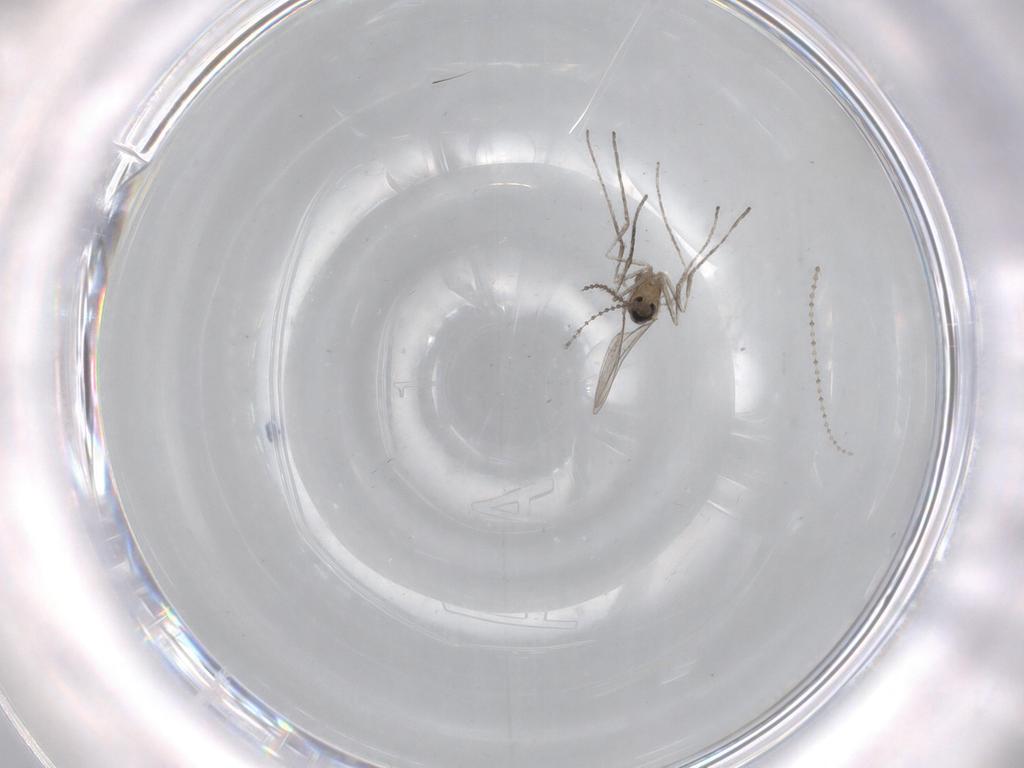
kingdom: Animalia
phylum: Arthropoda
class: Insecta
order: Diptera
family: Cecidomyiidae
